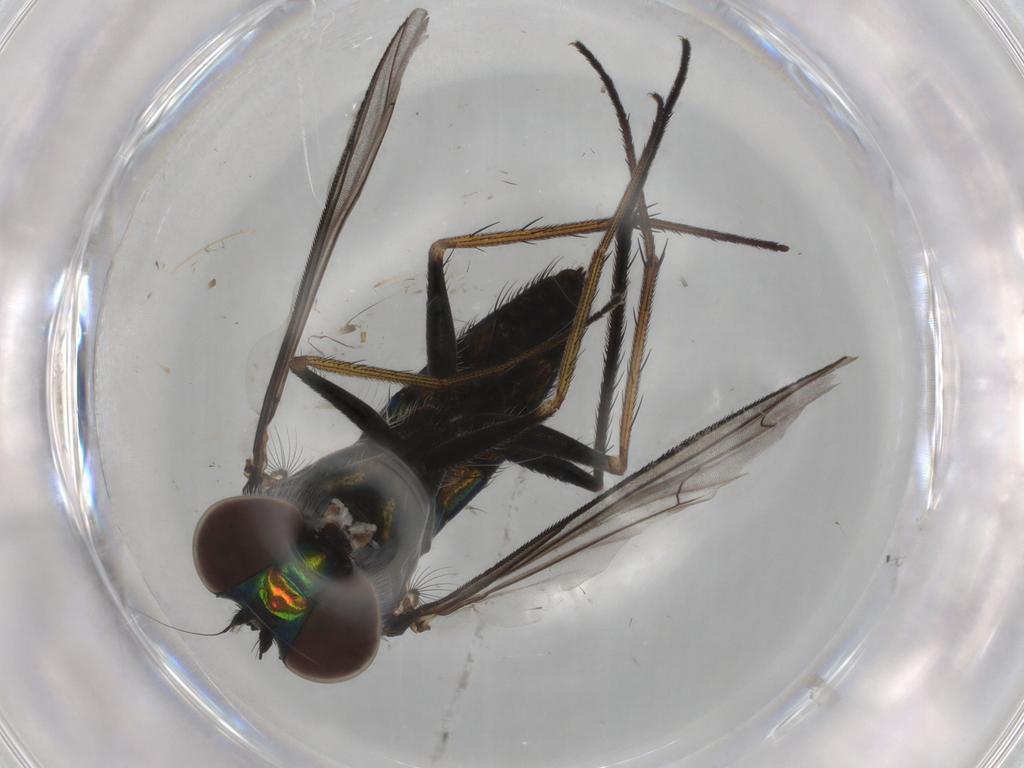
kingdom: Animalia
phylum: Arthropoda
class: Insecta
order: Diptera
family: Dolichopodidae
